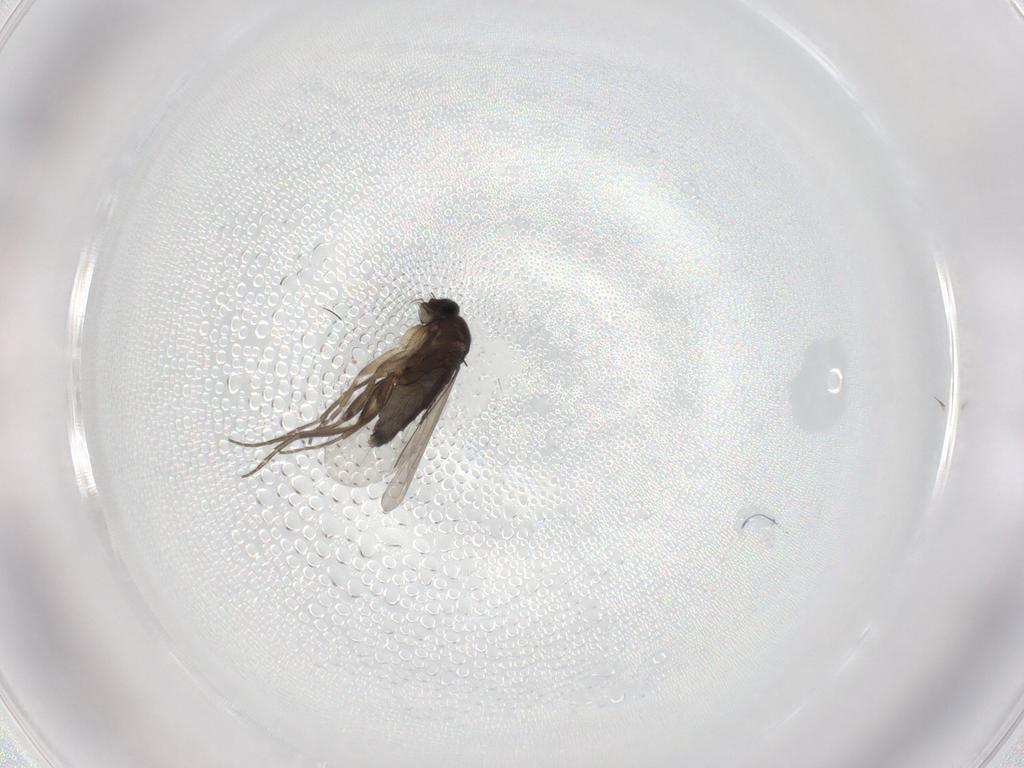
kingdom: Animalia
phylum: Arthropoda
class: Insecta
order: Diptera
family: Phoridae
